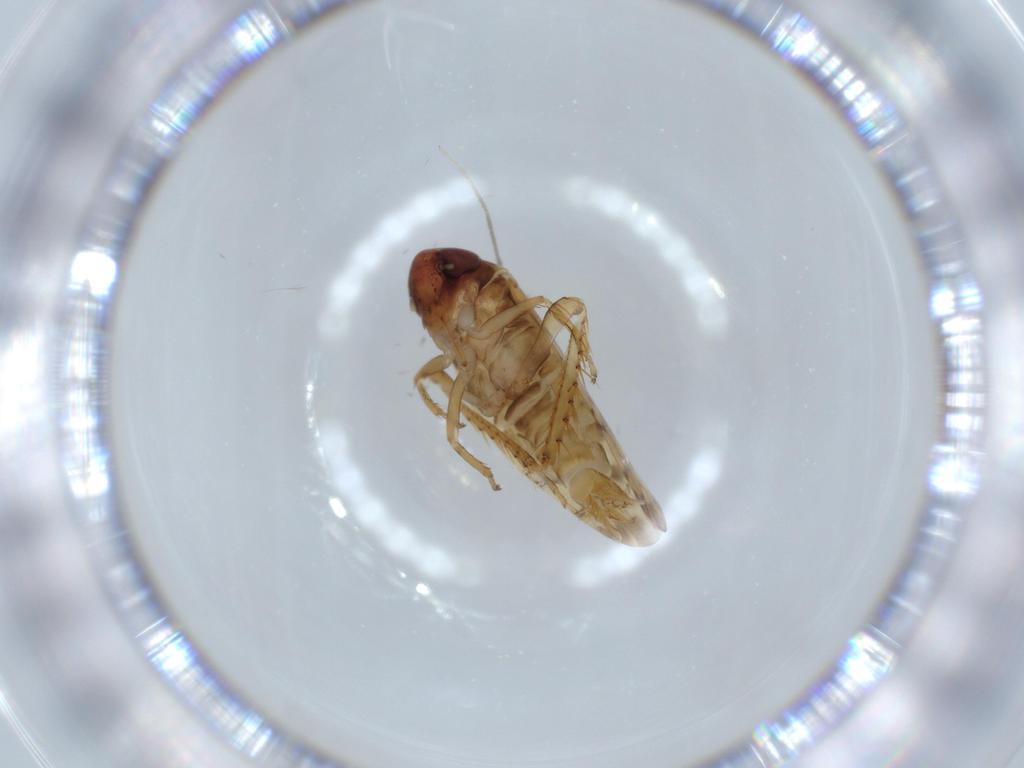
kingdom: Animalia
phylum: Arthropoda
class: Insecta
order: Hemiptera
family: Cicadellidae
